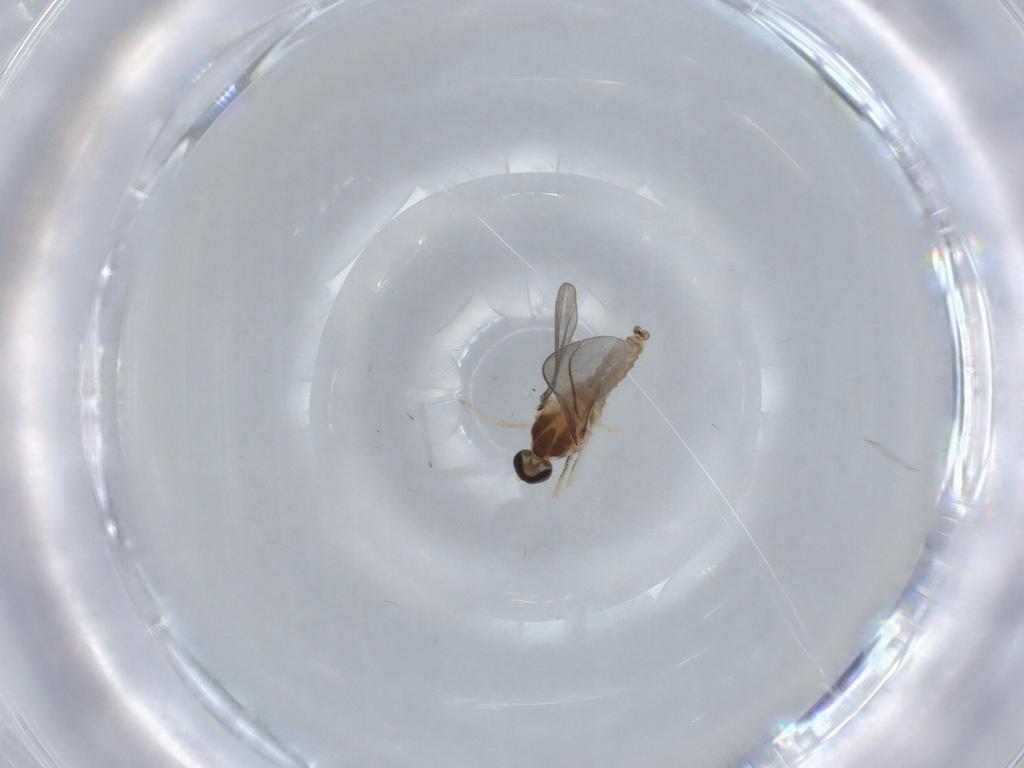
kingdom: Animalia
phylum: Arthropoda
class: Insecta
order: Diptera
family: Cecidomyiidae
